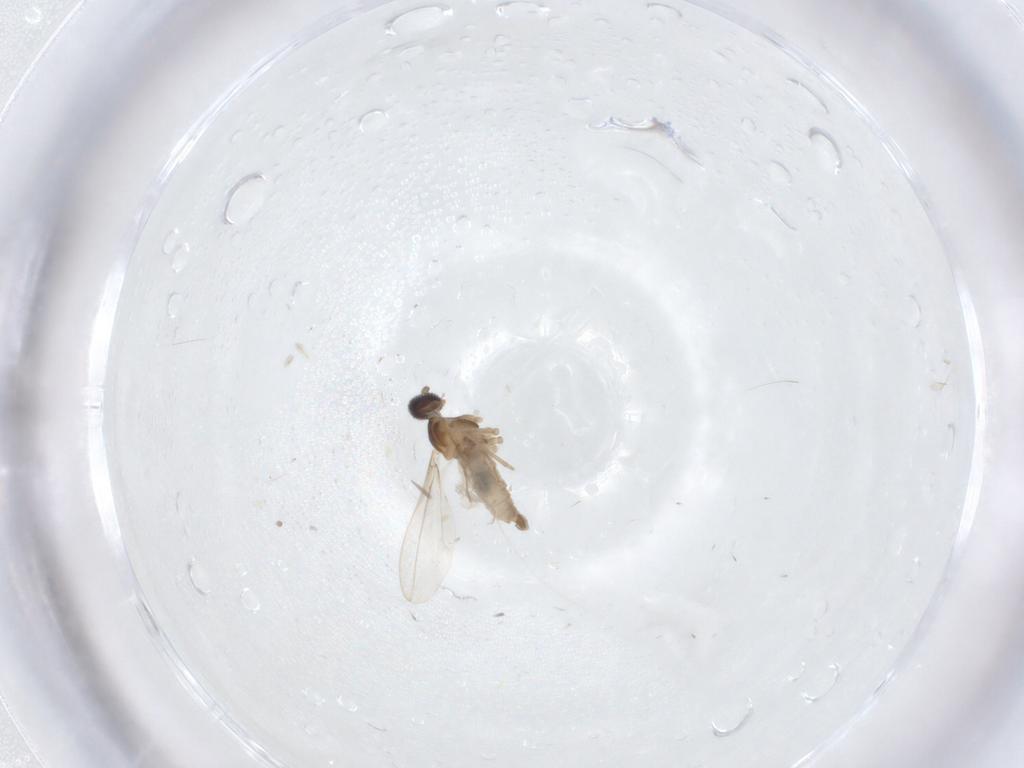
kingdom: Animalia
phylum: Arthropoda
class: Insecta
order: Diptera
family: Cecidomyiidae
